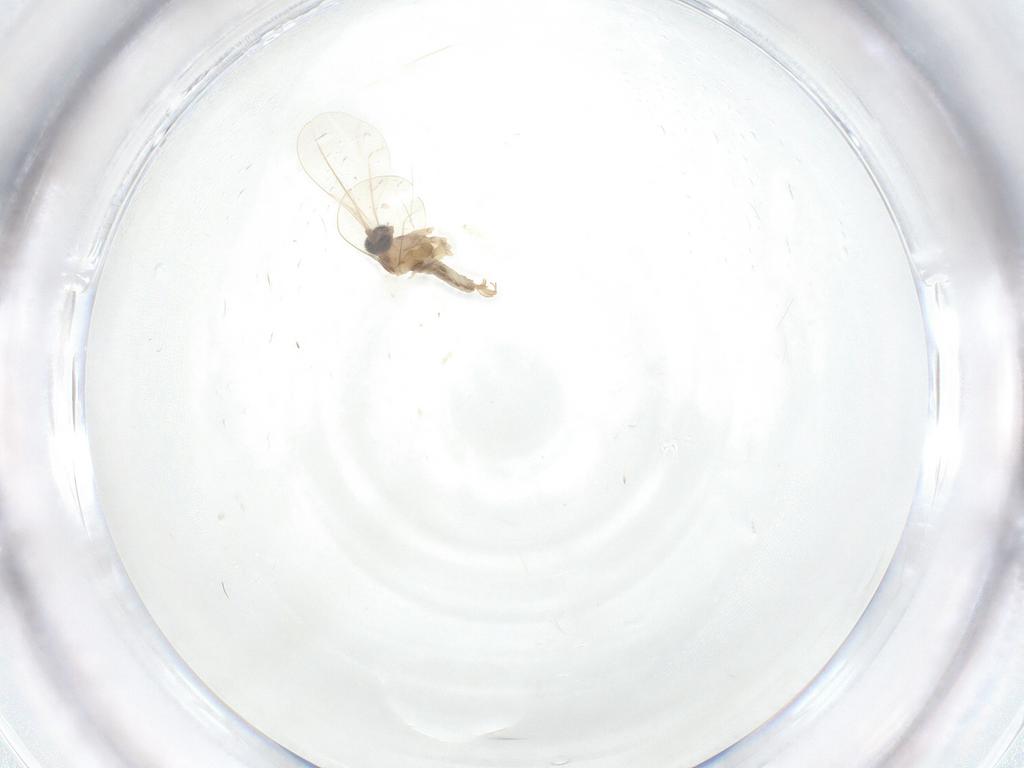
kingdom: Animalia
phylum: Arthropoda
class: Insecta
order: Diptera
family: Cecidomyiidae
